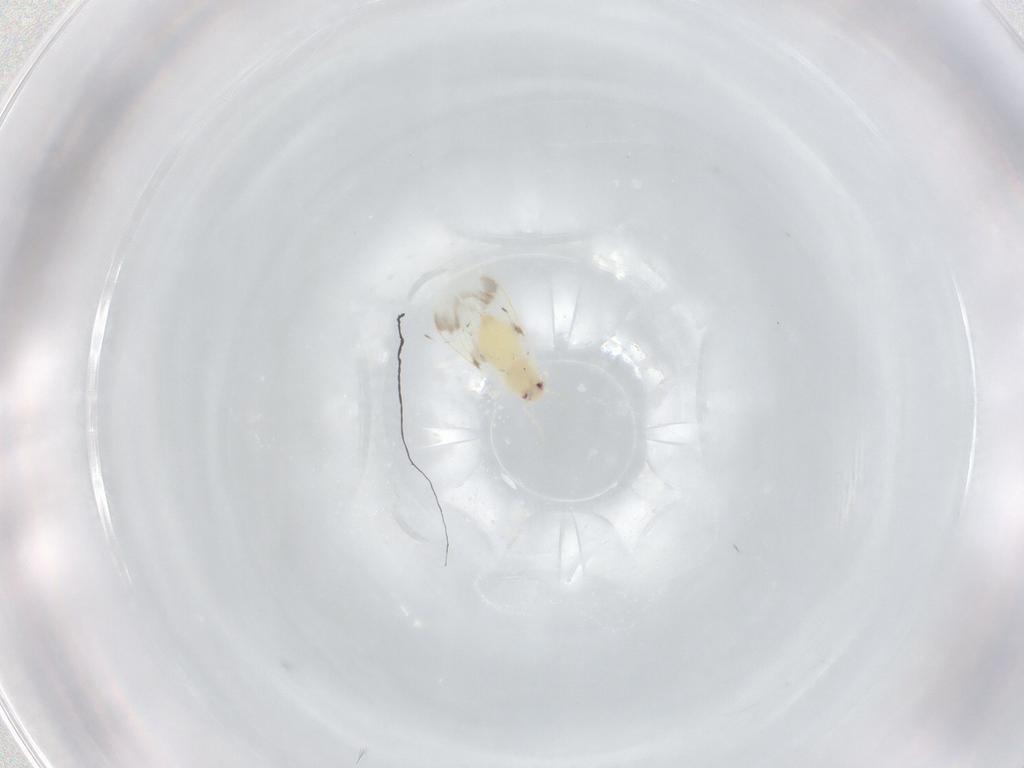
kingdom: Animalia
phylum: Arthropoda
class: Insecta
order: Hemiptera
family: Aleyrodidae
